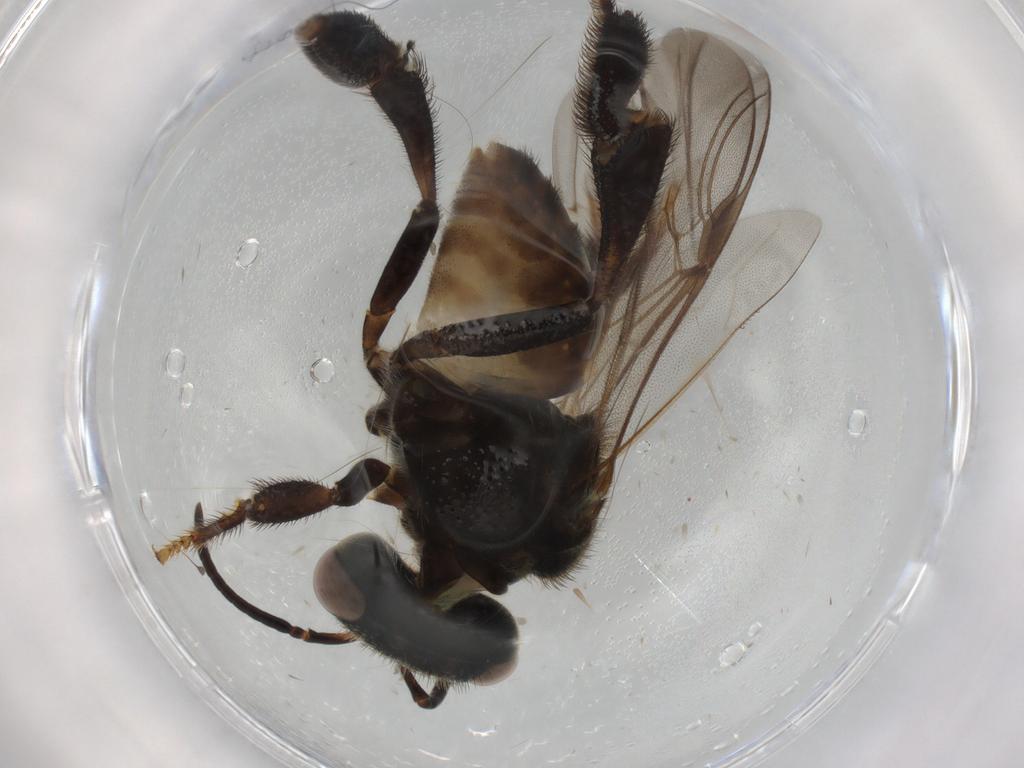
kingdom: Animalia
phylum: Arthropoda
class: Insecta
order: Hymenoptera
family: Apidae
